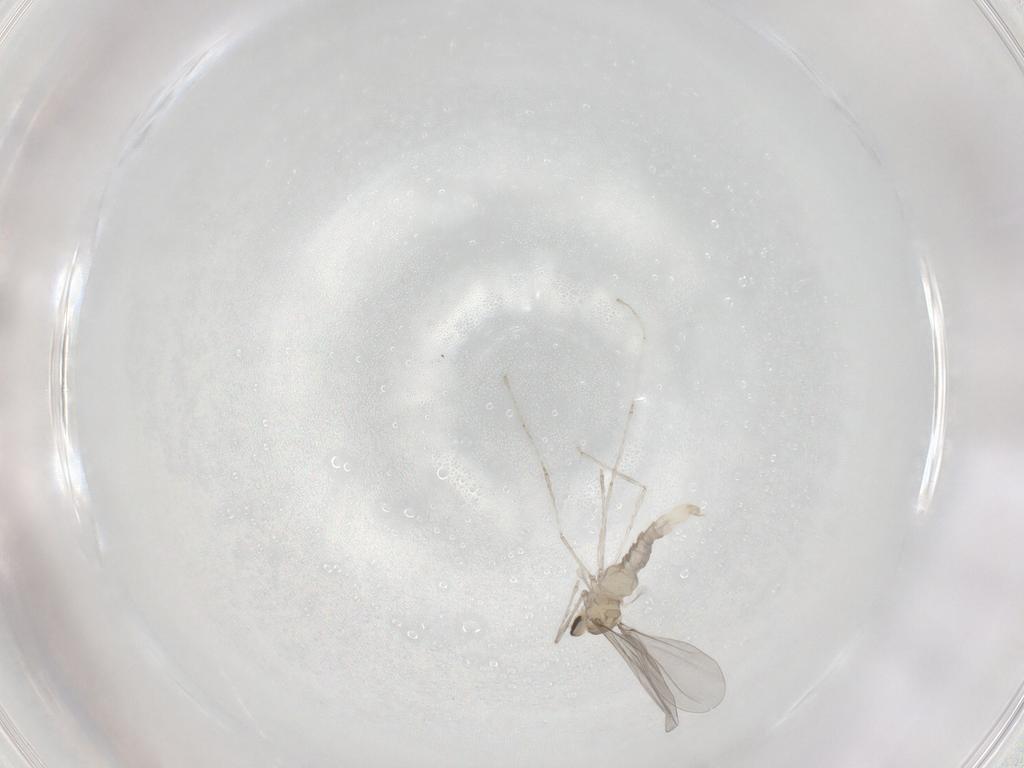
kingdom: Animalia
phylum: Arthropoda
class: Insecta
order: Diptera
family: Cecidomyiidae
